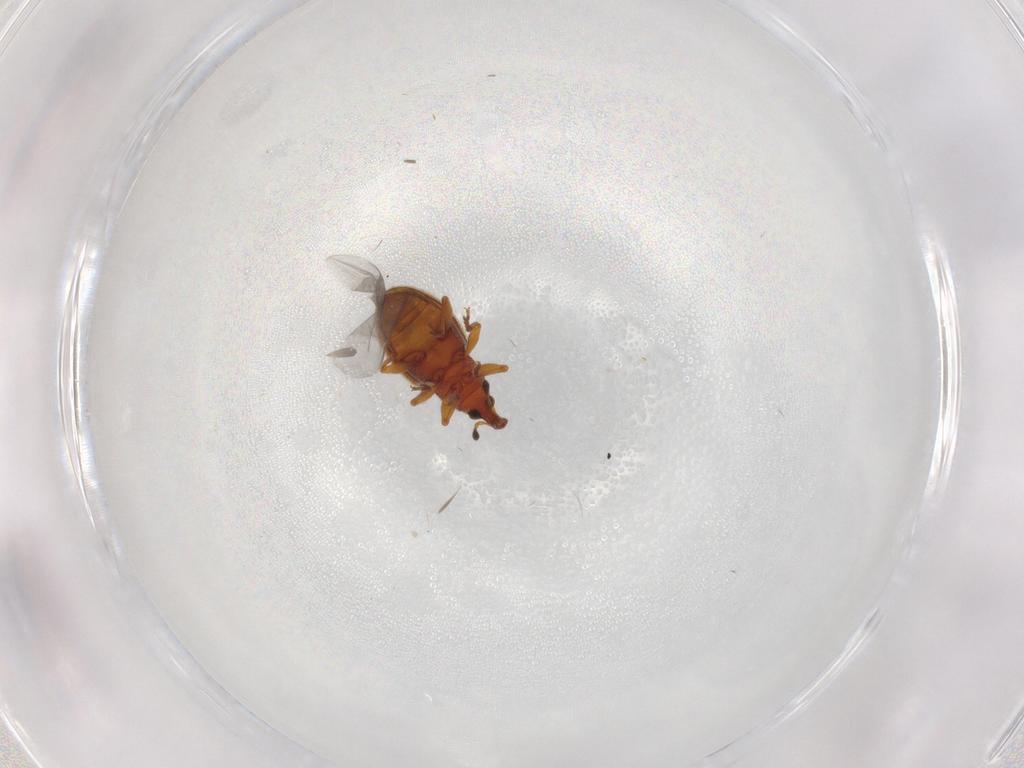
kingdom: Animalia
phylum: Arthropoda
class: Insecta
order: Coleoptera
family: Curculionidae
